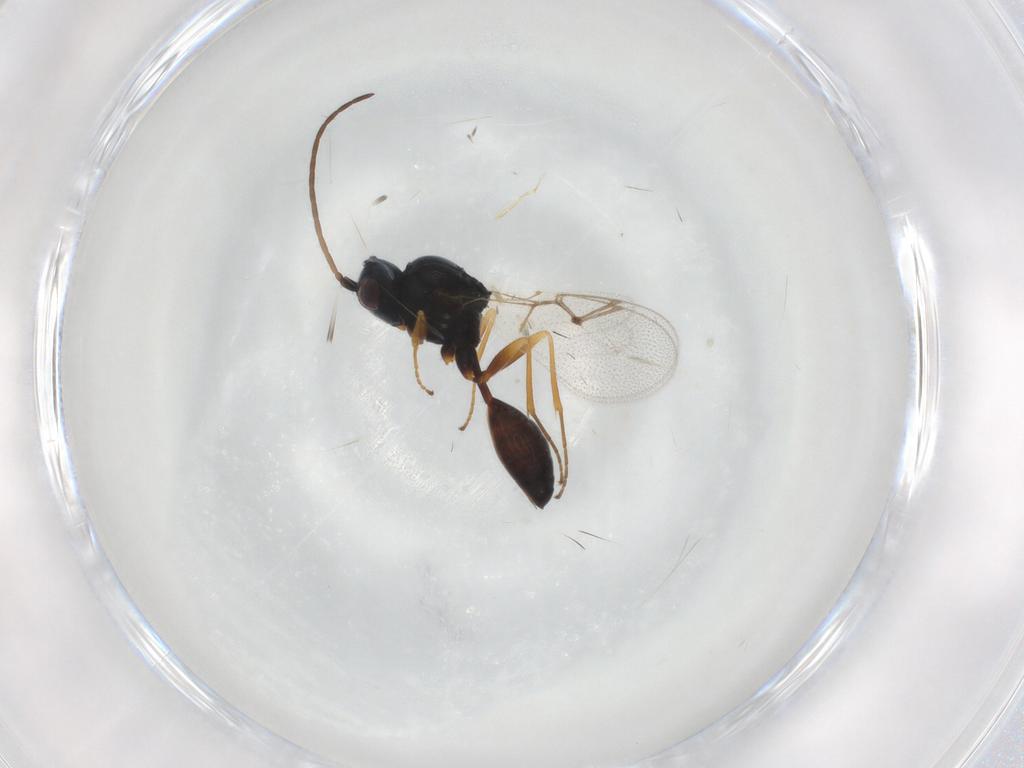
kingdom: Animalia
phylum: Arthropoda
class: Insecta
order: Hymenoptera
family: Figitidae
